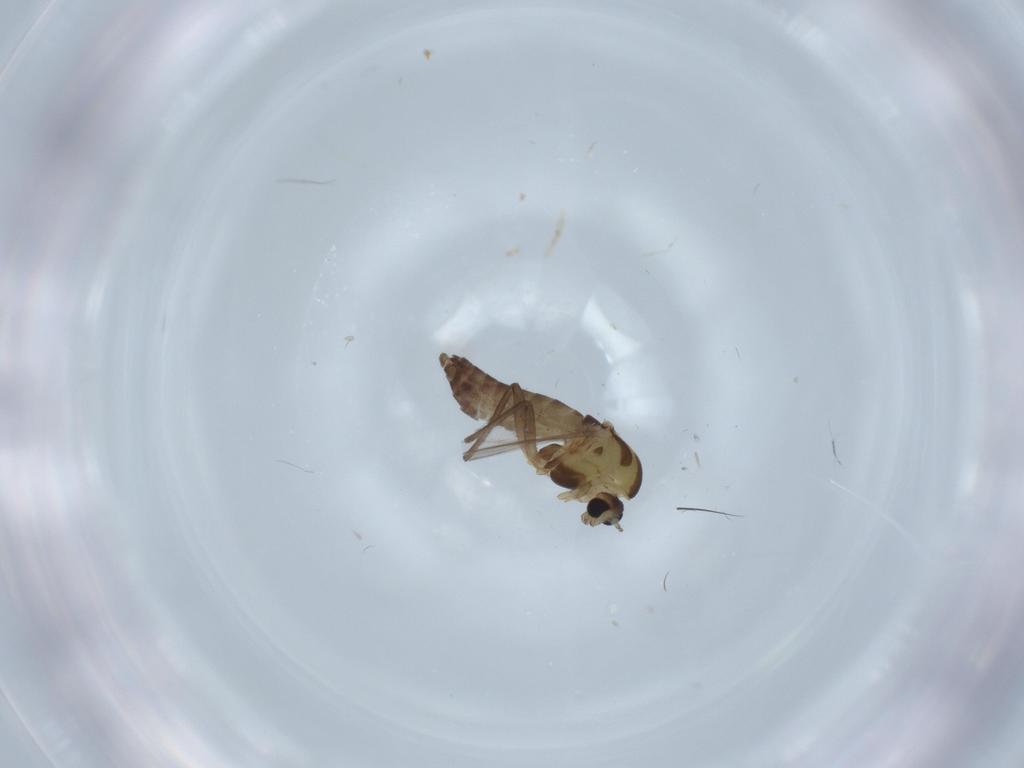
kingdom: Animalia
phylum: Arthropoda
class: Insecta
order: Diptera
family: Chironomidae
